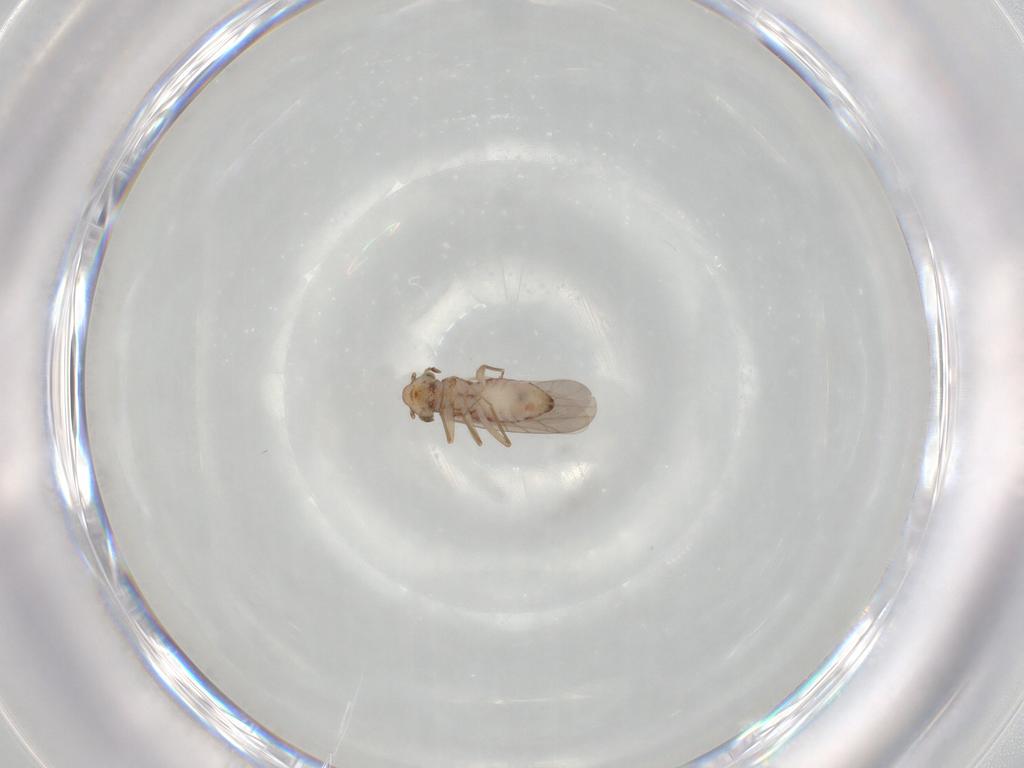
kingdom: Animalia
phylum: Arthropoda
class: Insecta
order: Psocodea
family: Lepidopsocidae
